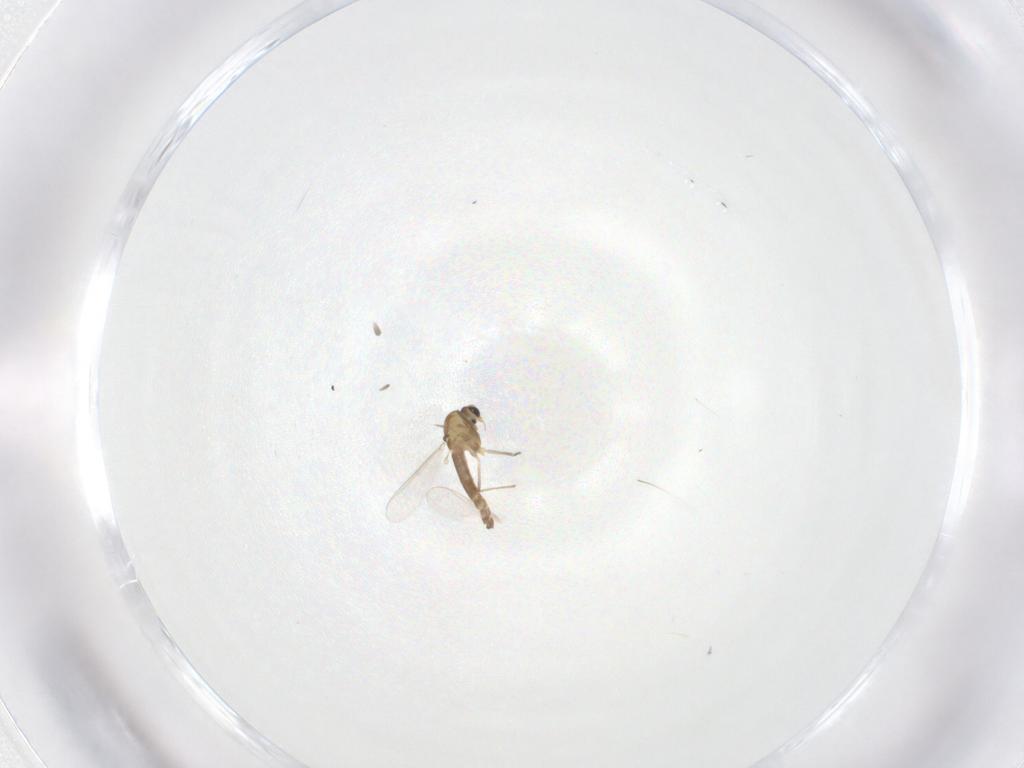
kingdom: Animalia
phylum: Arthropoda
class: Insecta
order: Diptera
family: Chironomidae
